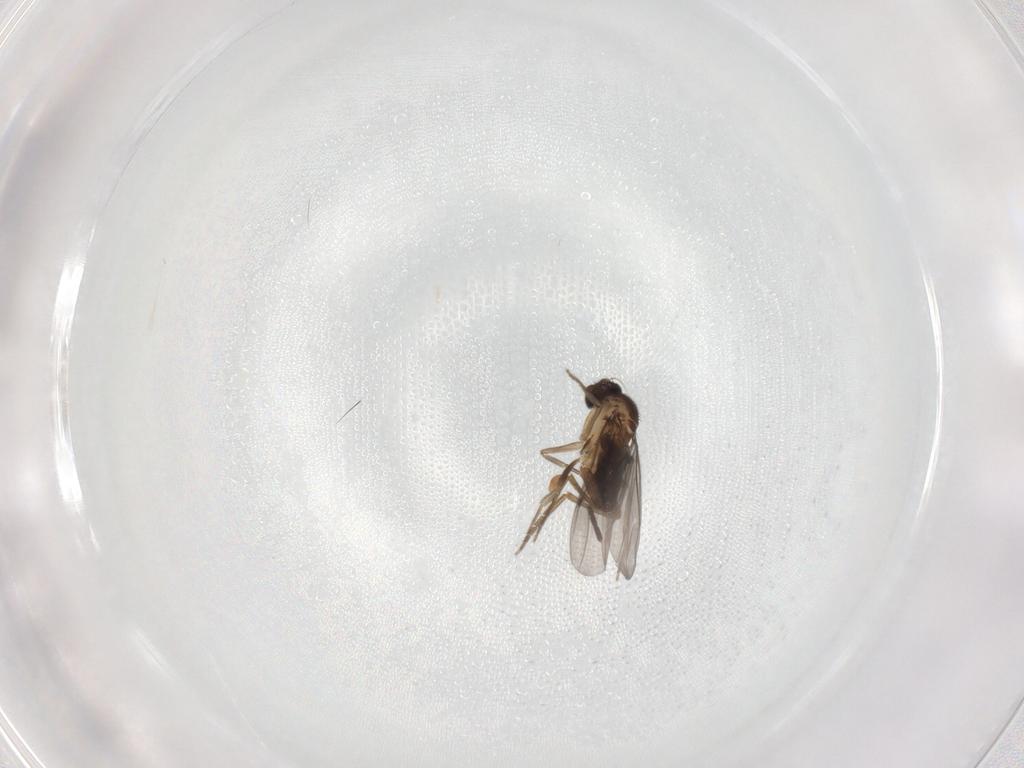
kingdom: Animalia
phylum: Arthropoda
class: Insecta
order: Diptera
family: Phoridae
